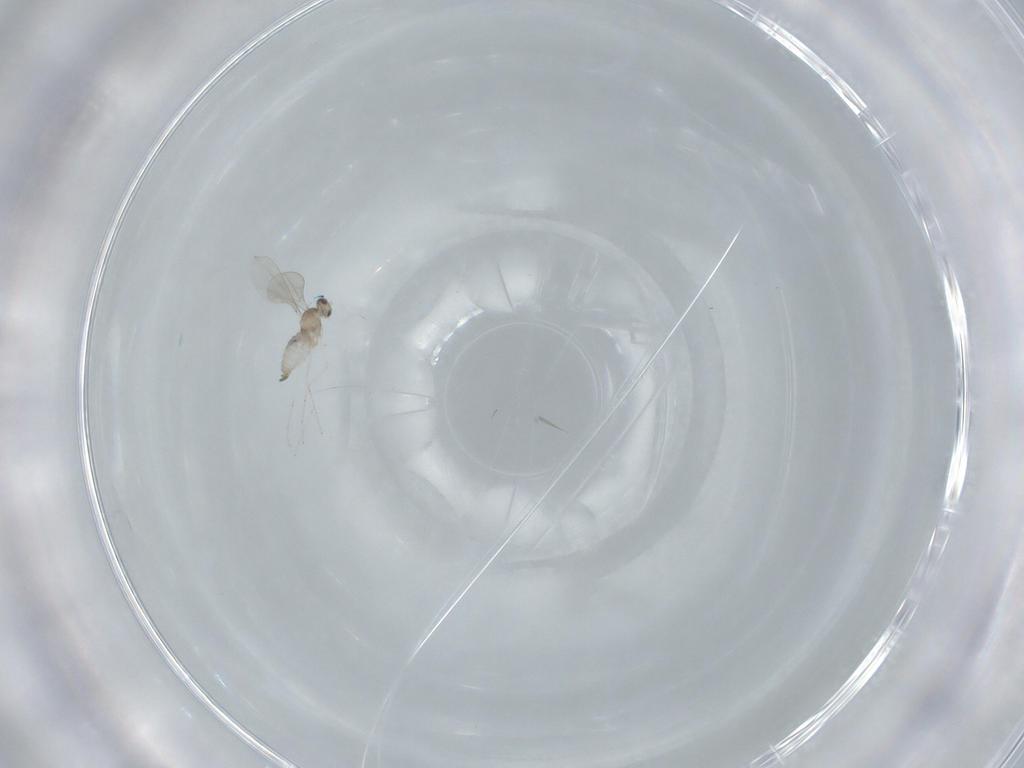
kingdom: Animalia
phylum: Arthropoda
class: Insecta
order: Diptera
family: Cecidomyiidae
